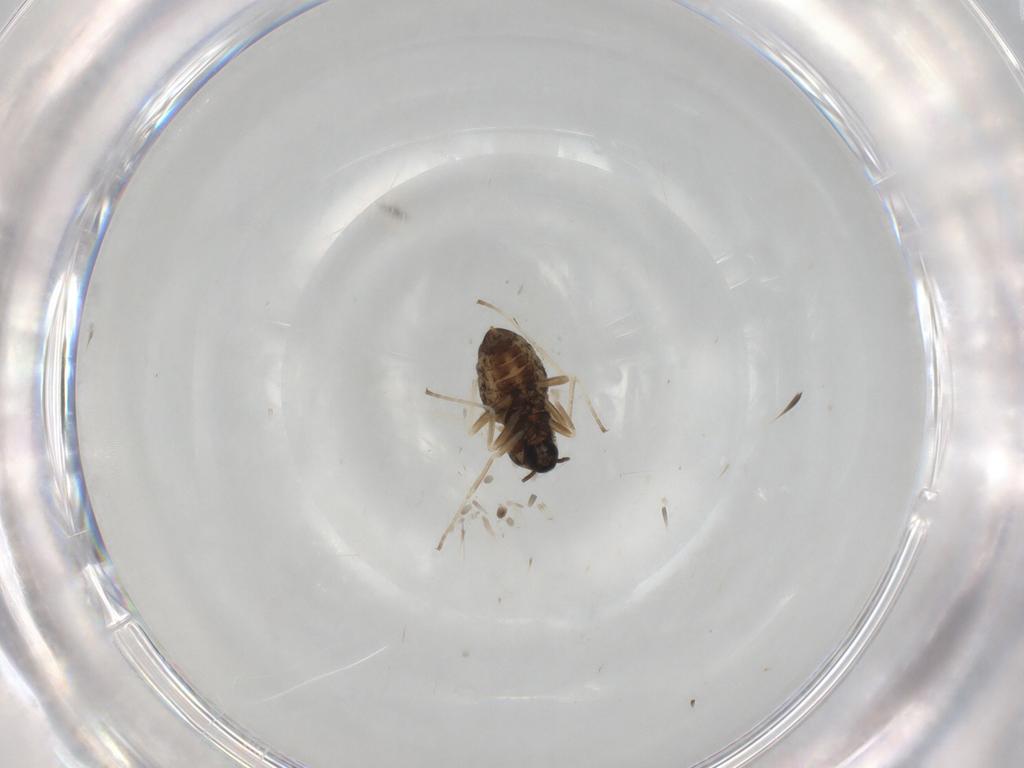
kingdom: Animalia
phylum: Arthropoda
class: Insecta
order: Diptera
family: Cecidomyiidae
